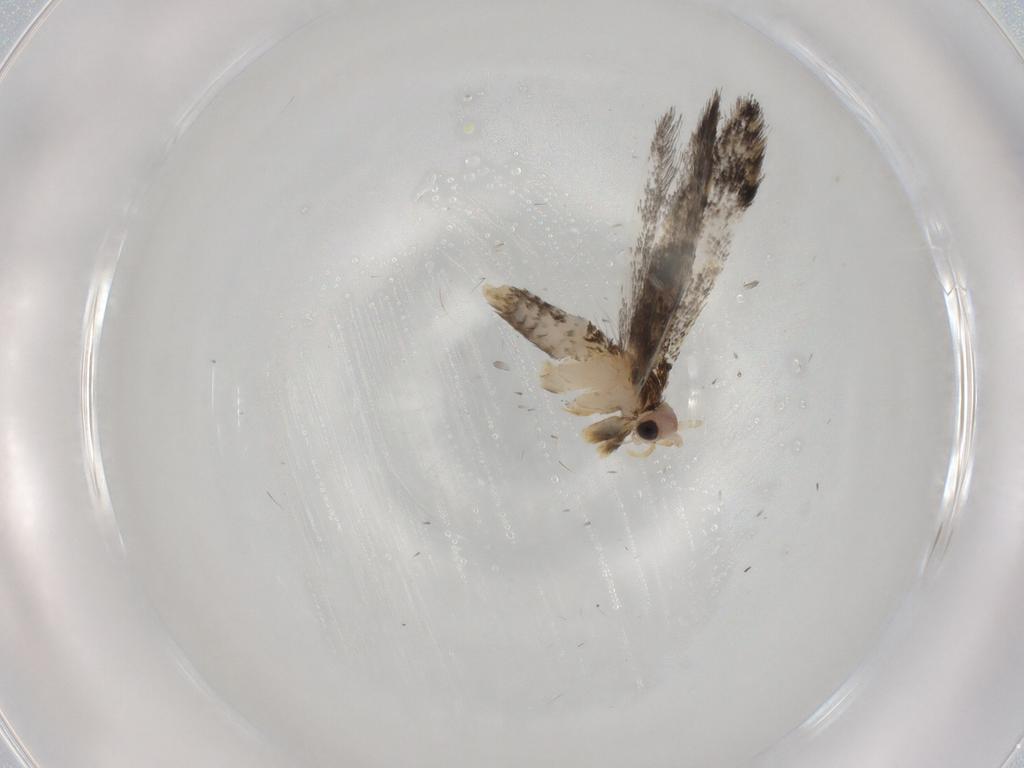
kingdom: Animalia
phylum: Arthropoda
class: Insecta
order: Lepidoptera
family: Tineidae
